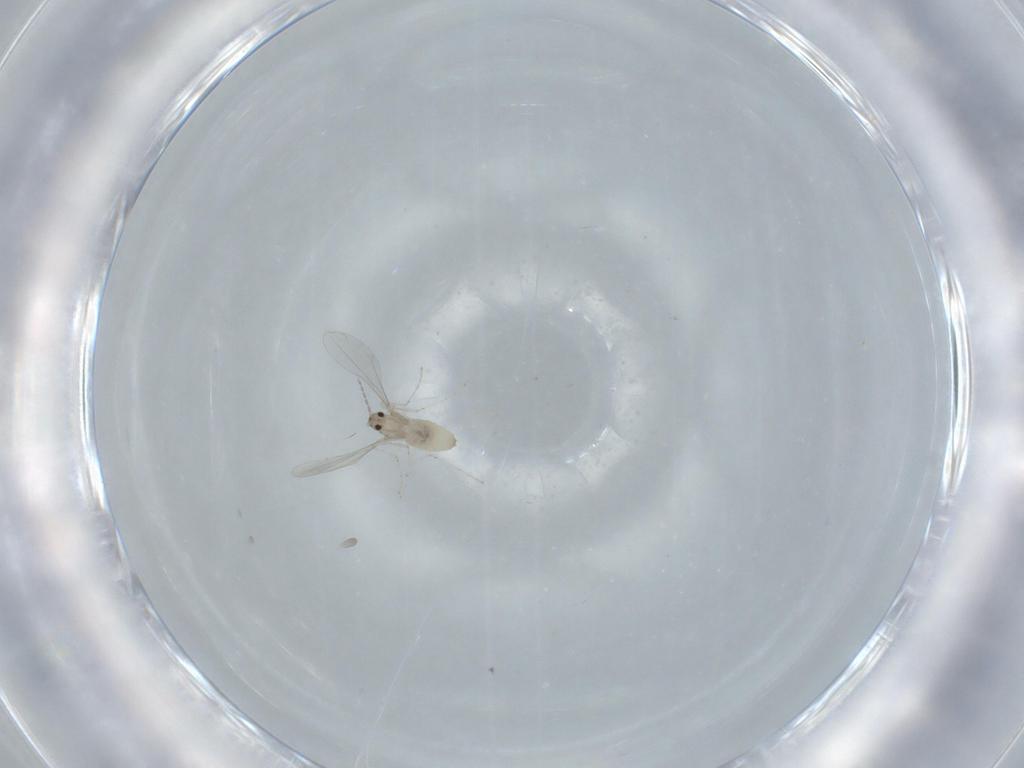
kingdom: Animalia
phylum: Arthropoda
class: Insecta
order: Diptera
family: Cecidomyiidae
